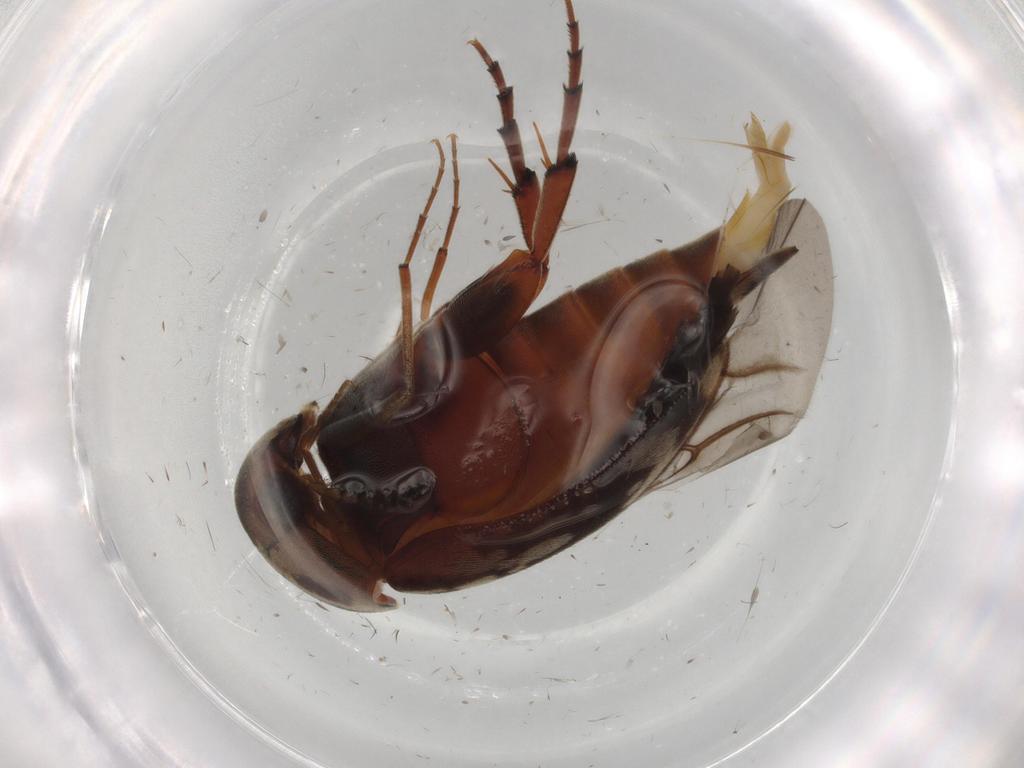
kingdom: Animalia
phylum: Arthropoda
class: Insecta
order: Coleoptera
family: Mordellidae
